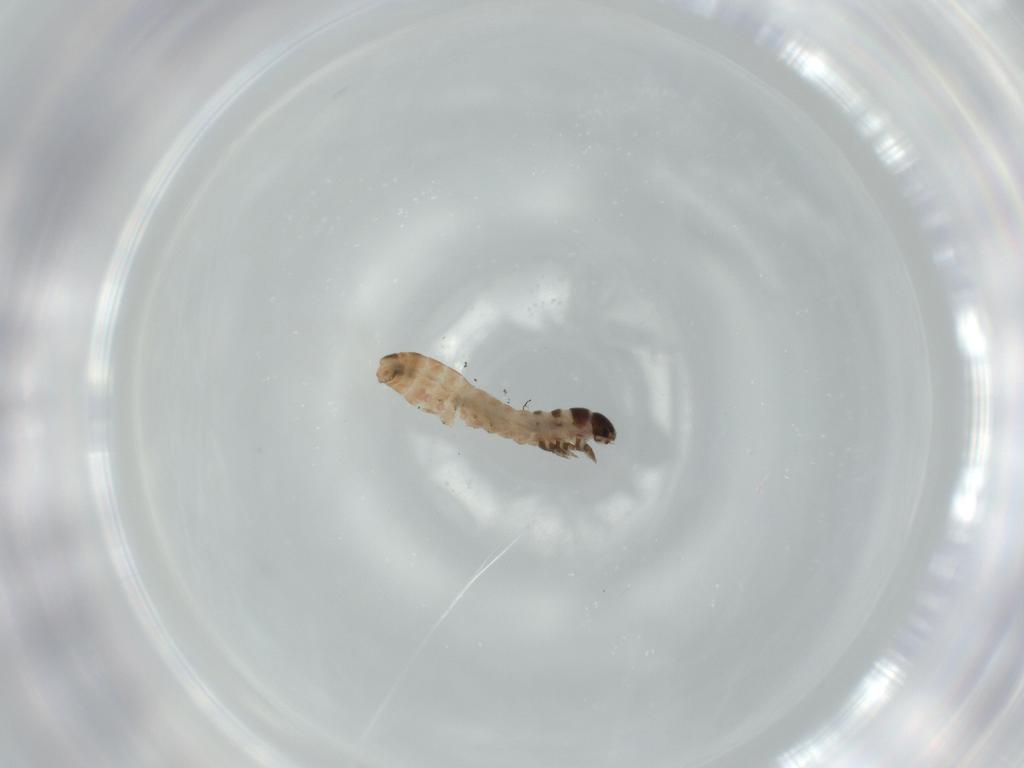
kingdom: Animalia
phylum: Arthropoda
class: Insecta
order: Lepidoptera
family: Psychidae
